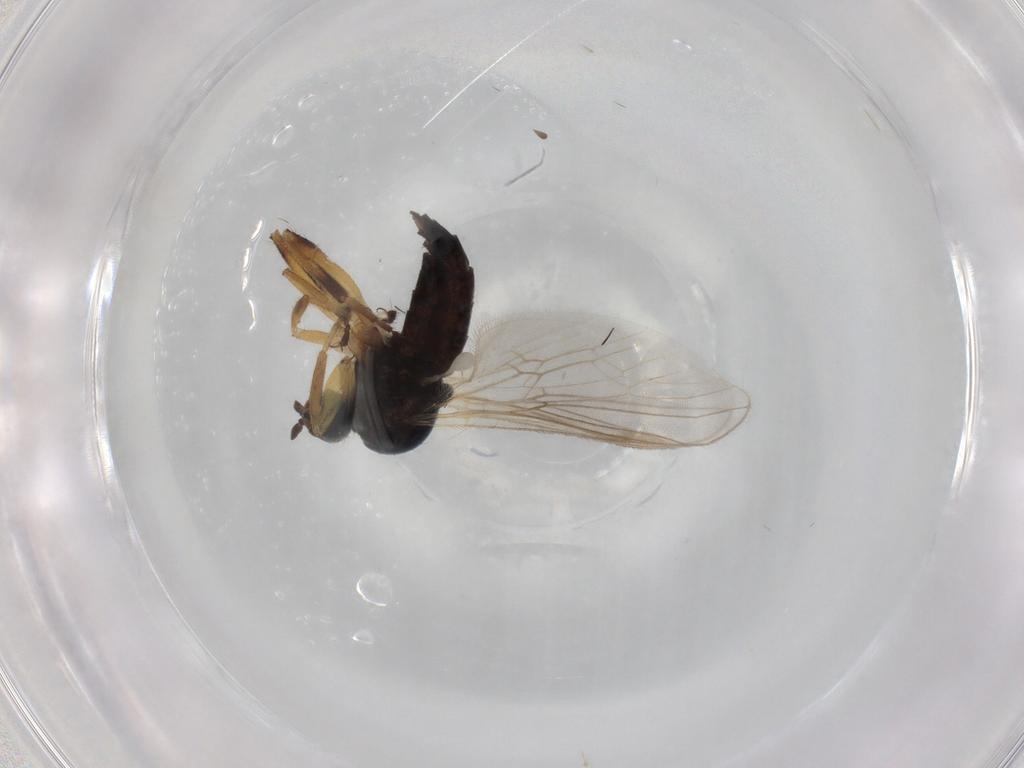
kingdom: Animalia
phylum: Arthropoda
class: Insecta
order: Diptera
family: Hybotidae
